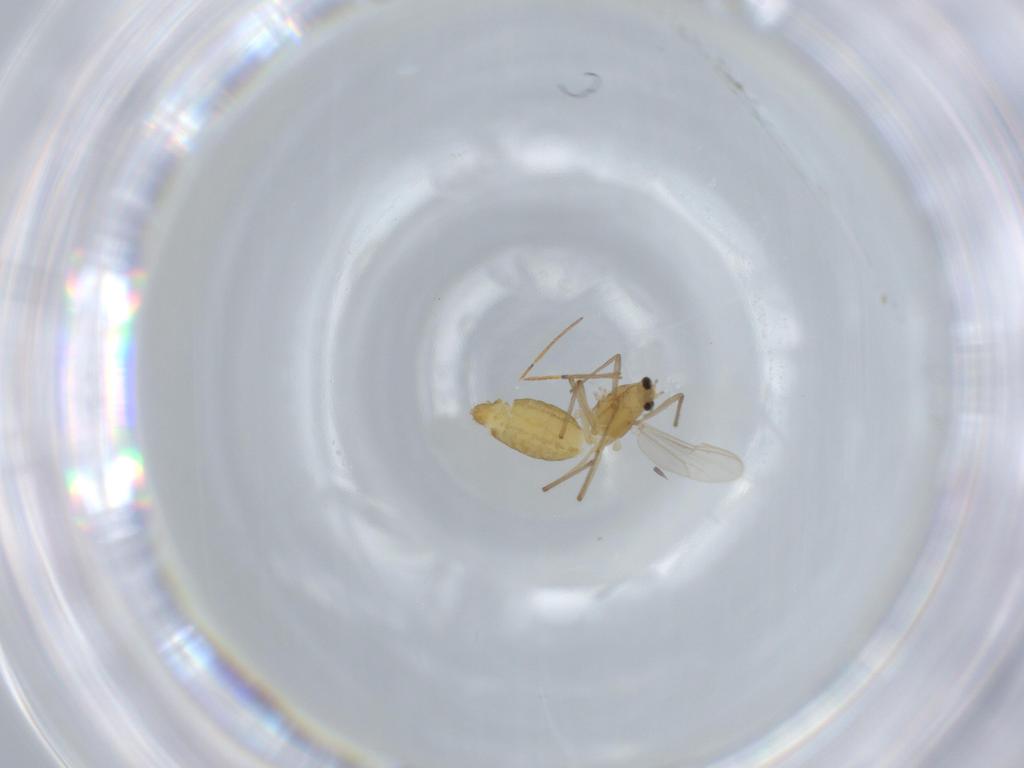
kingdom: Animalia
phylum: Arthropoda
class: Insecta
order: Diptera
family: Chironomidae
